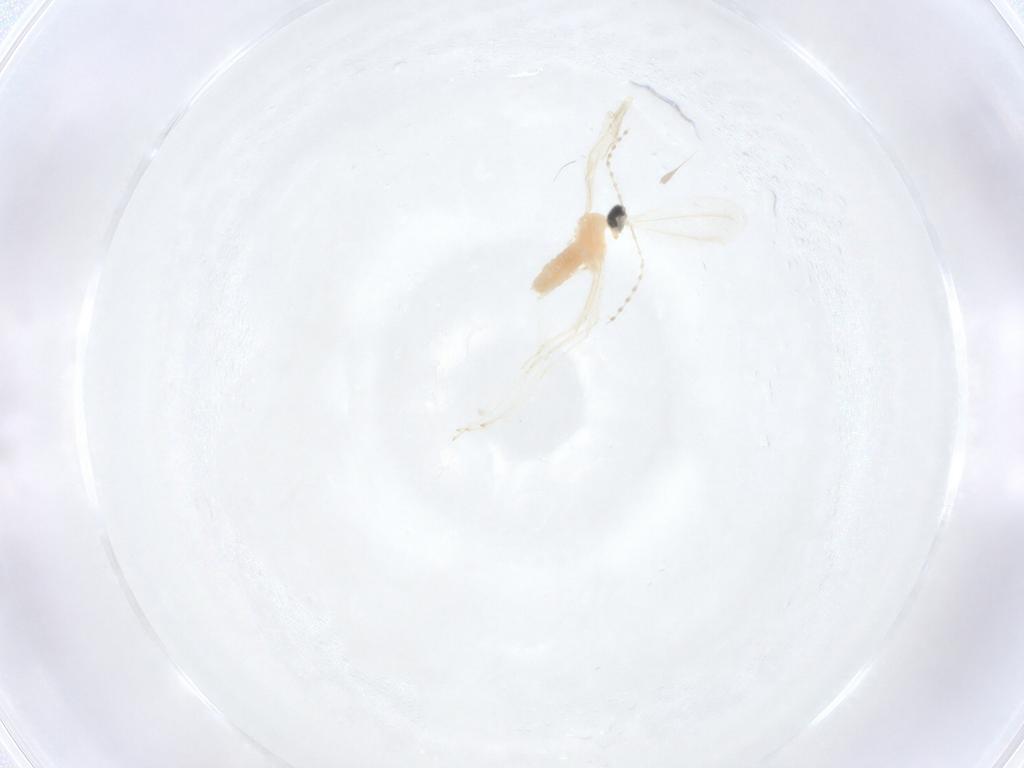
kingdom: Animalia
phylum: Arthropoda
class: Insecta
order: Diptera
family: Cecidomyiidae
